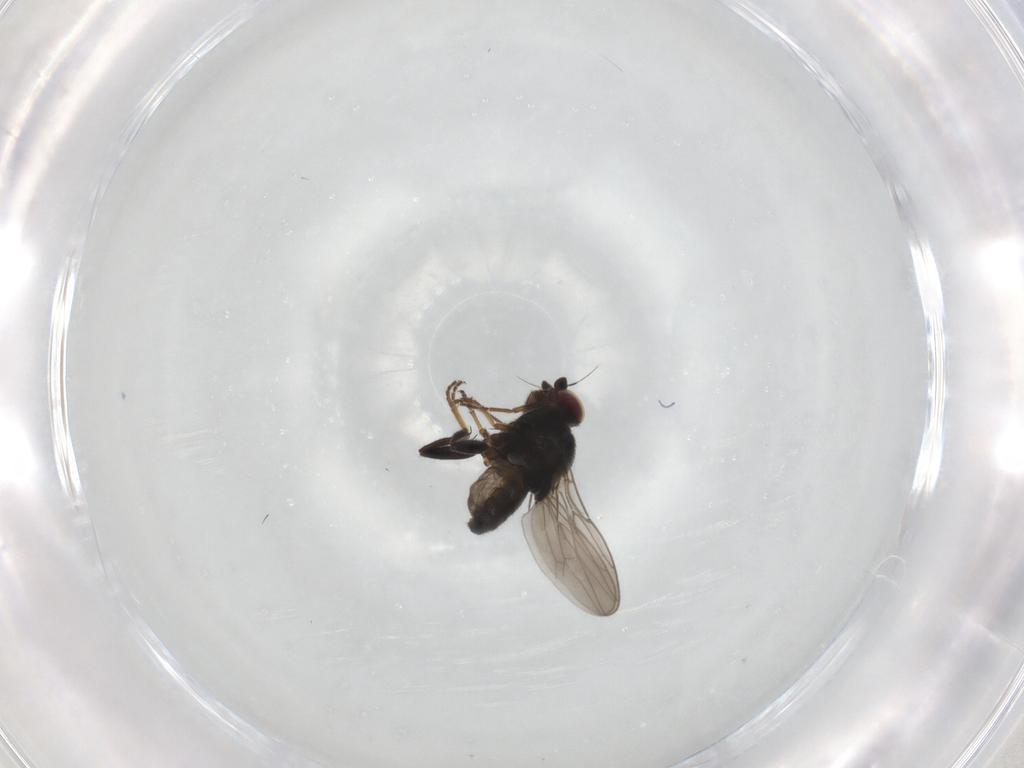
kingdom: Animalia
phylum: Arthropoda
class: Insecta
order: Diptera
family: Chloropidae
